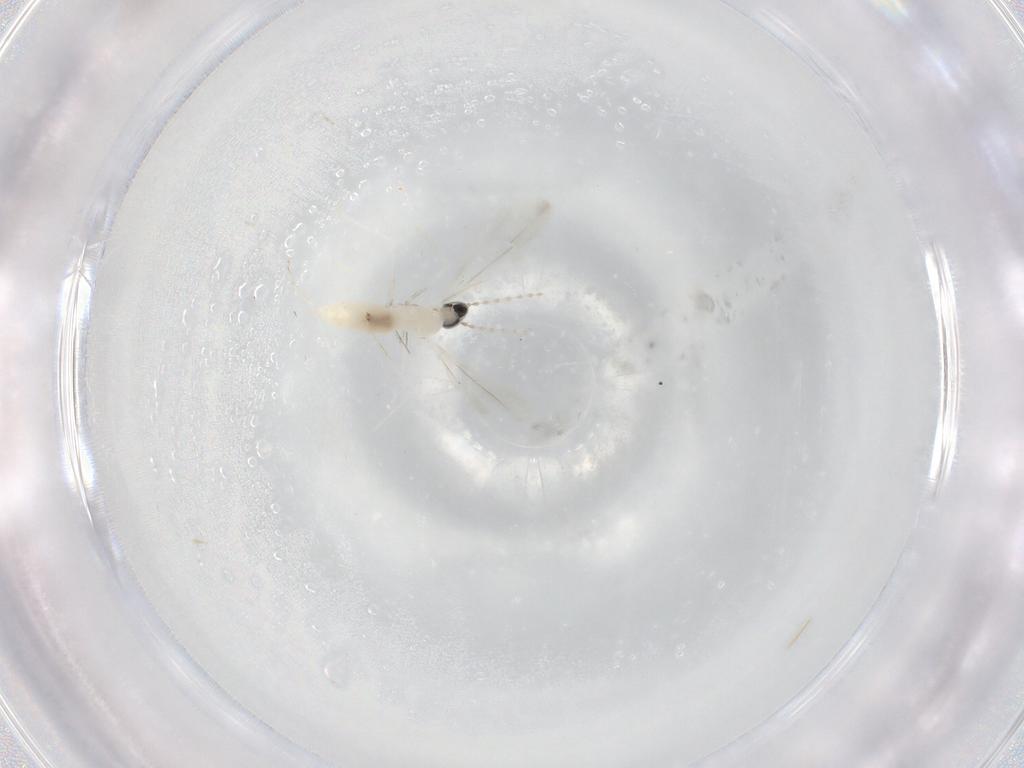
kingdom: Animalia
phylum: Arthropoda
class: Insecta
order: Diptera
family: Cecidomyiidae
